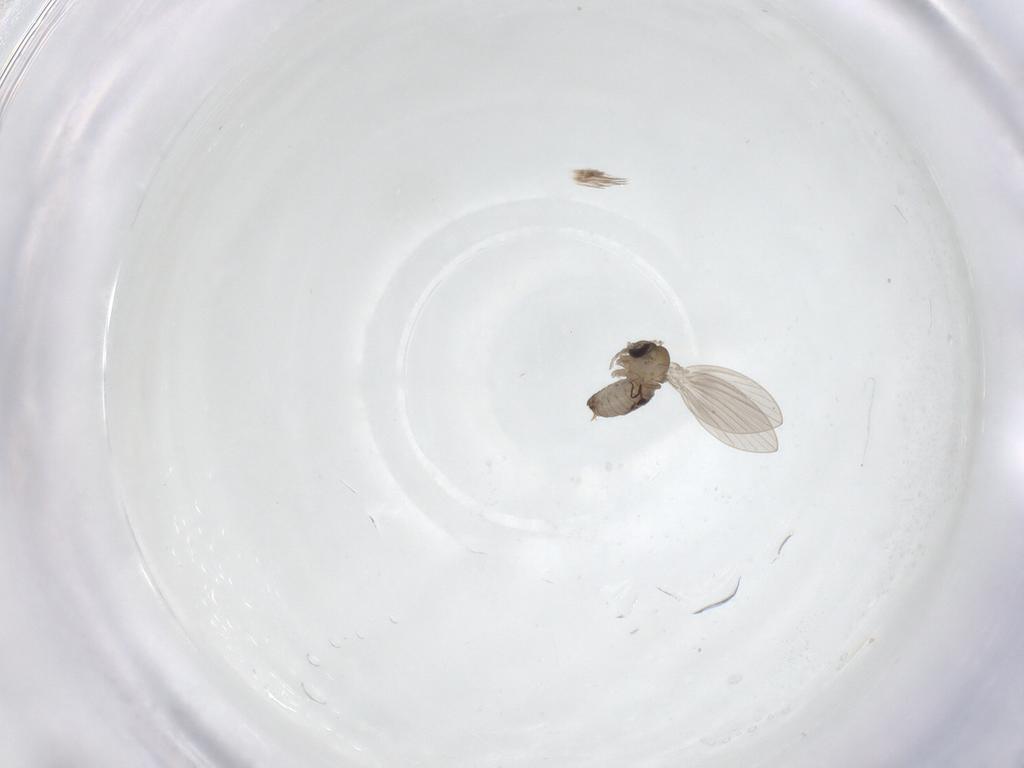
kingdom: Animalia
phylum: Arthropoda
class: Insecta
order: Diptera
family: Psychodidae
